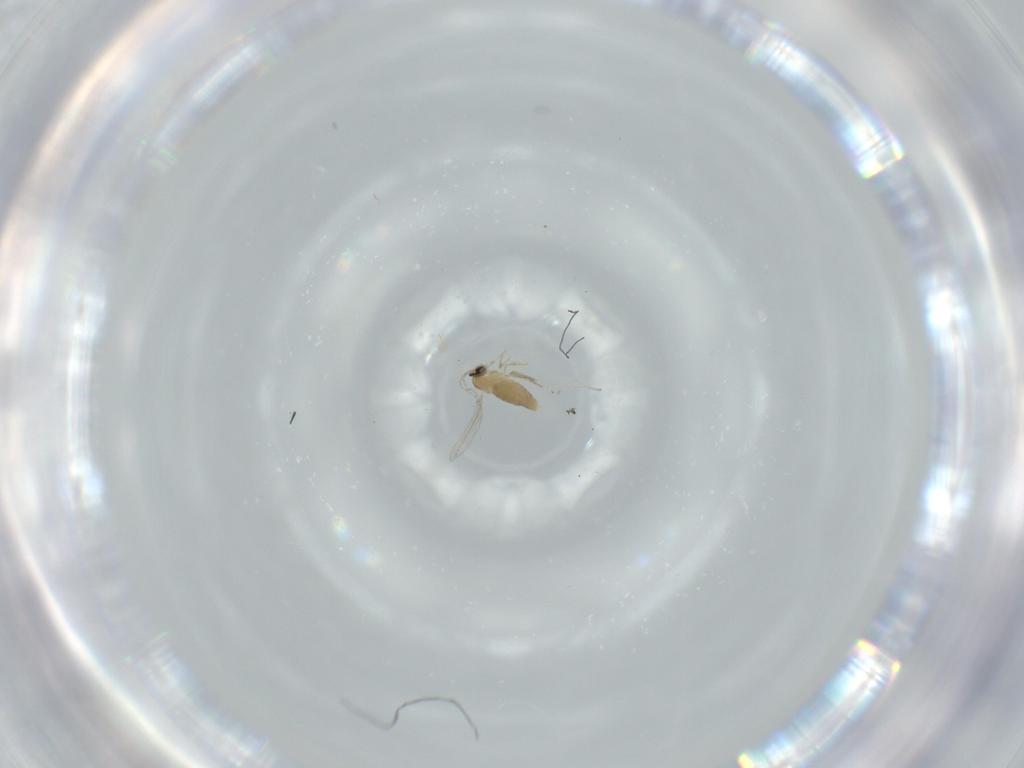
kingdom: Animalia
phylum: Arthropoda
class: Insecta
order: Diptera
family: Cecidomyiidae
